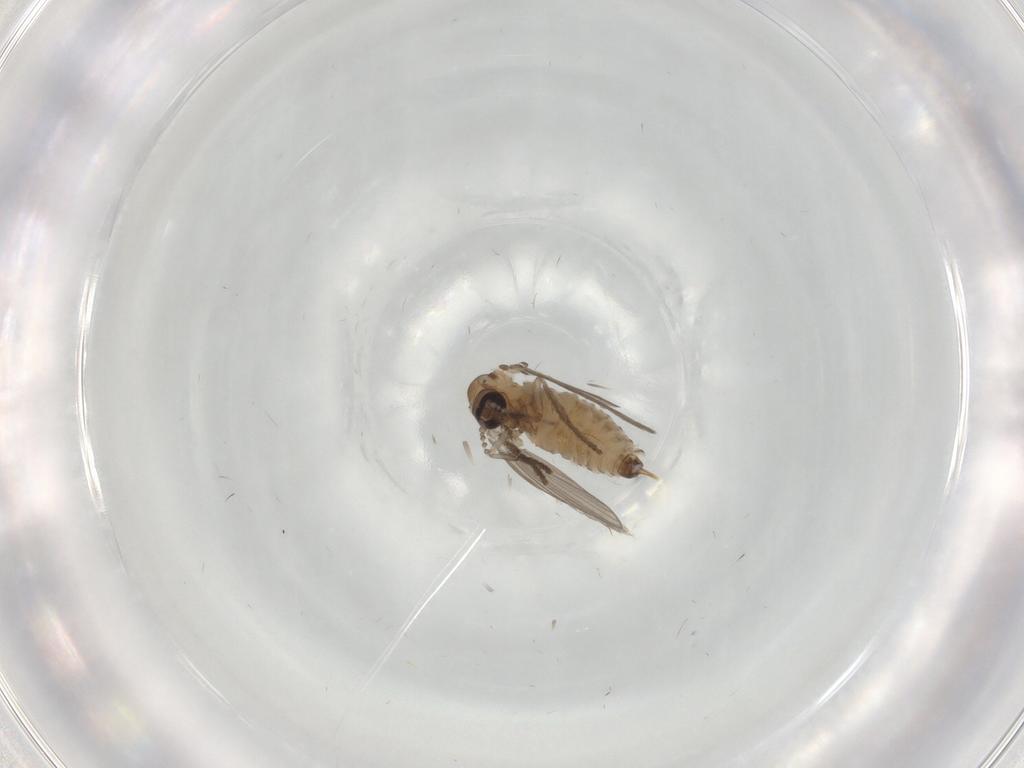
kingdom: Animalia
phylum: Arthropoda
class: Insecta
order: Diptera
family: Psychodidae
